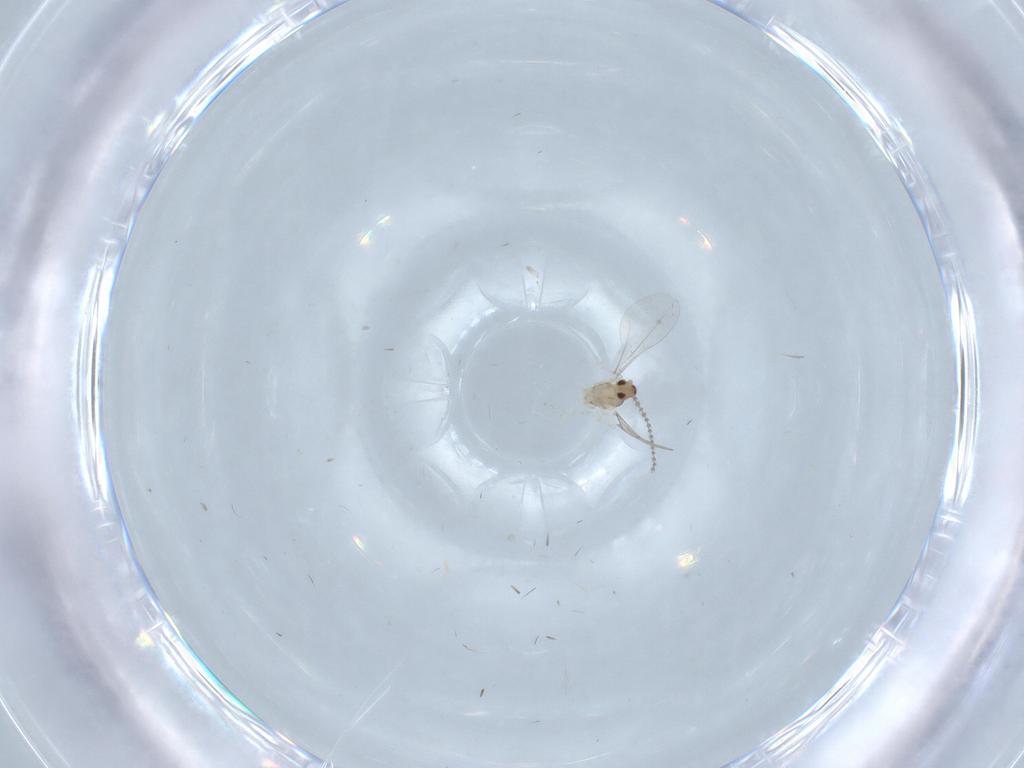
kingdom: Animalia
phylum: Arthropoda
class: Insecta
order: Diptera
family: Cecidomyiidae
